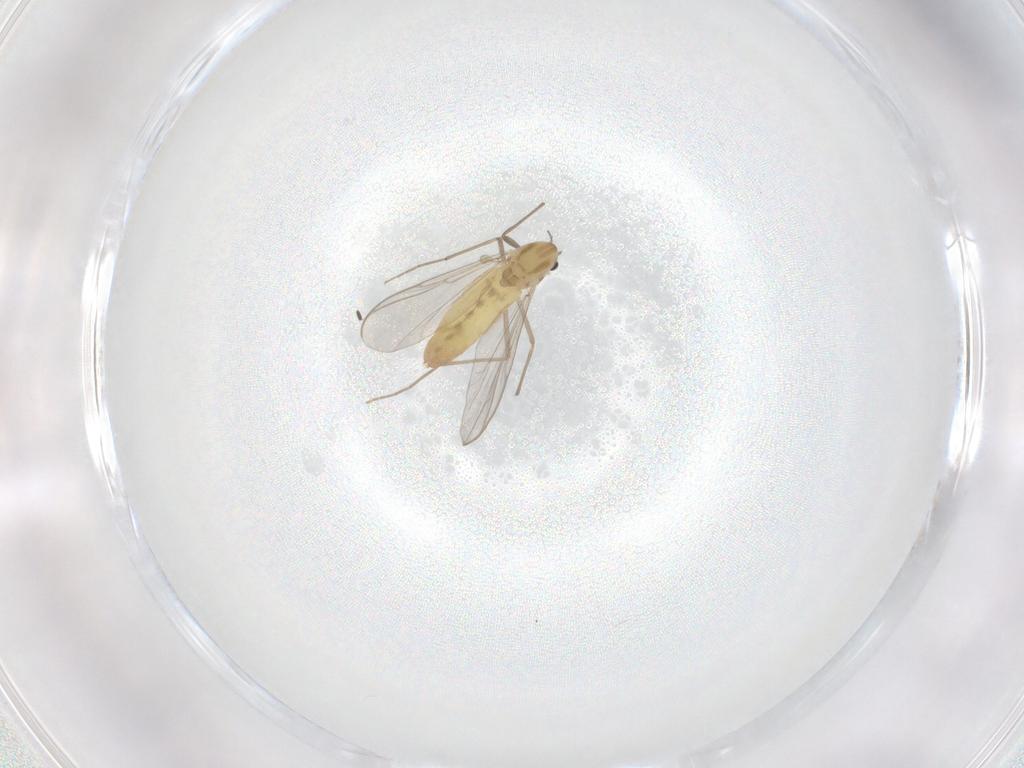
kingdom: Animalia
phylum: Arthropoda
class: Insecta
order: Diptera
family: Chironomidae
